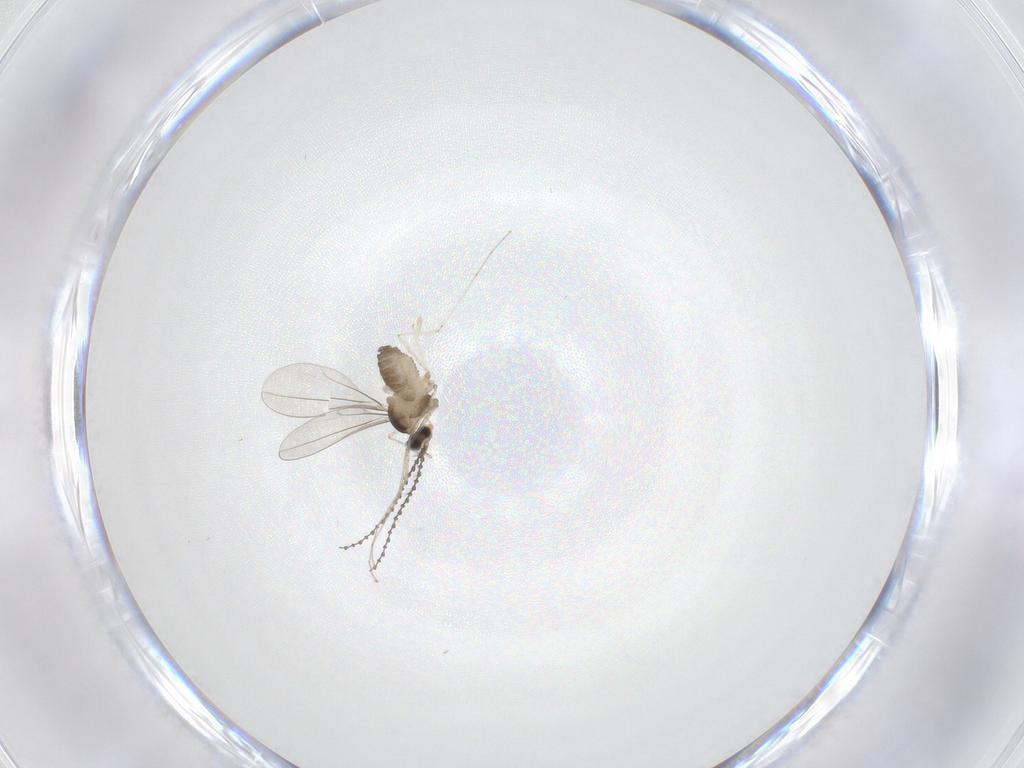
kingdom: Animalia
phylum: Arthropoda
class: Insecta
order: Diptera
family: Cecidomyiidae
